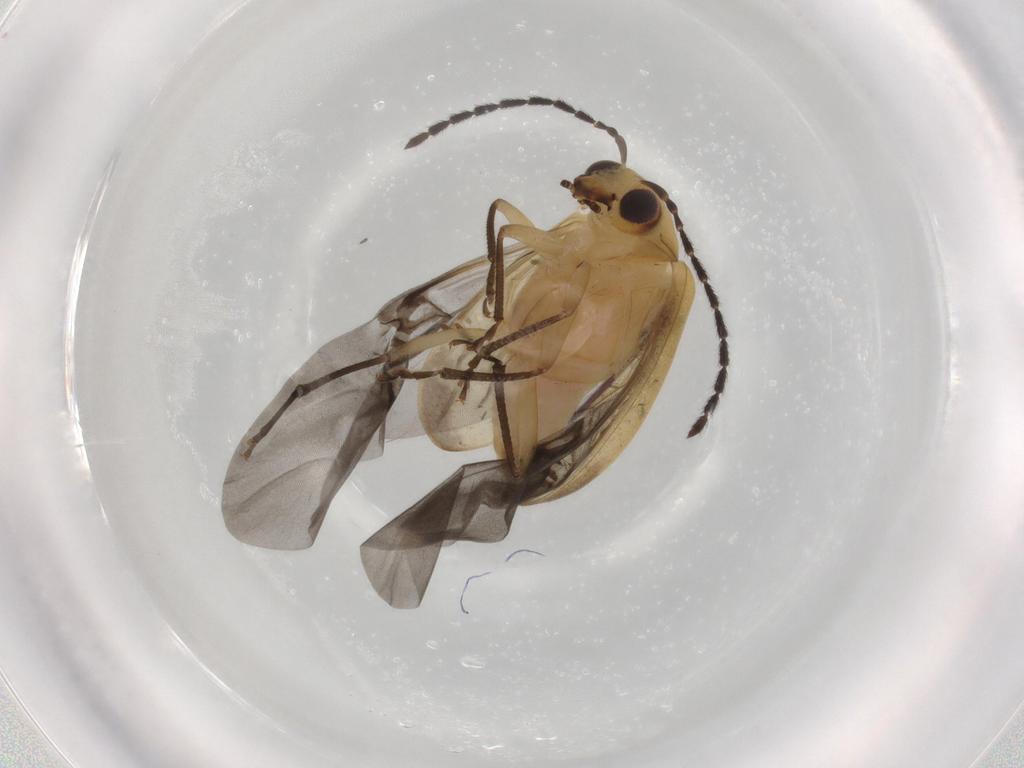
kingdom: Animalia
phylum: Arthropoda
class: Insecta
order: Coleoptera
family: Chrysomelidae
